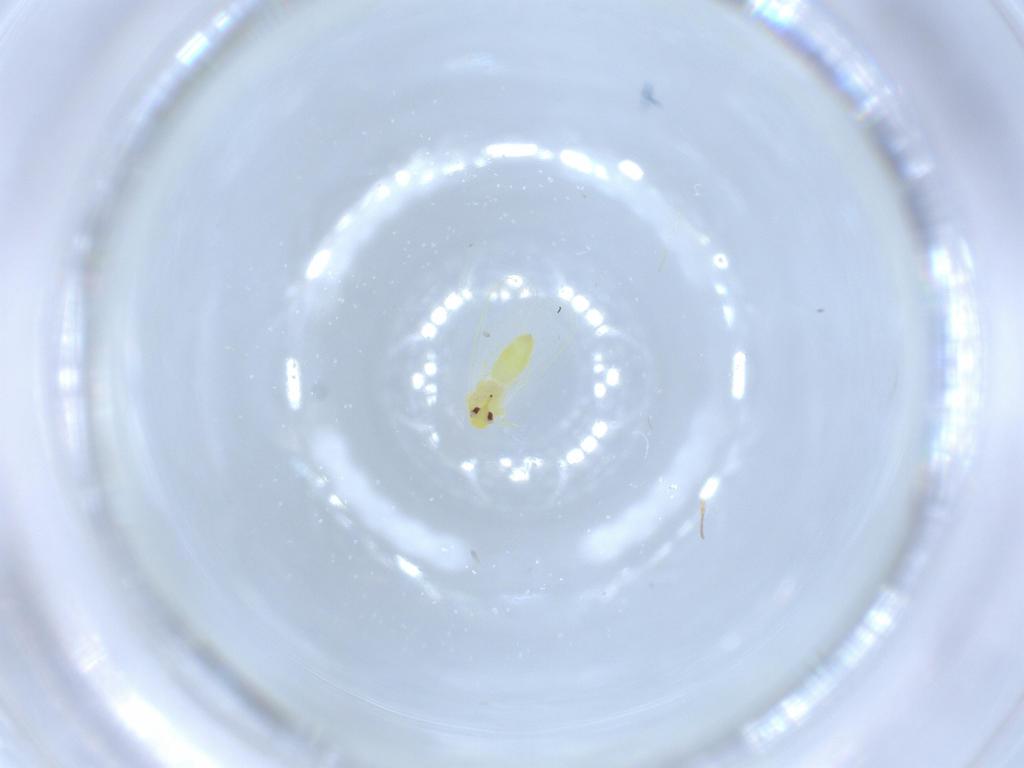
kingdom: Animalia
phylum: Arthropoda
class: Insecta
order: Hemiptera
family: Aleyrodidae
